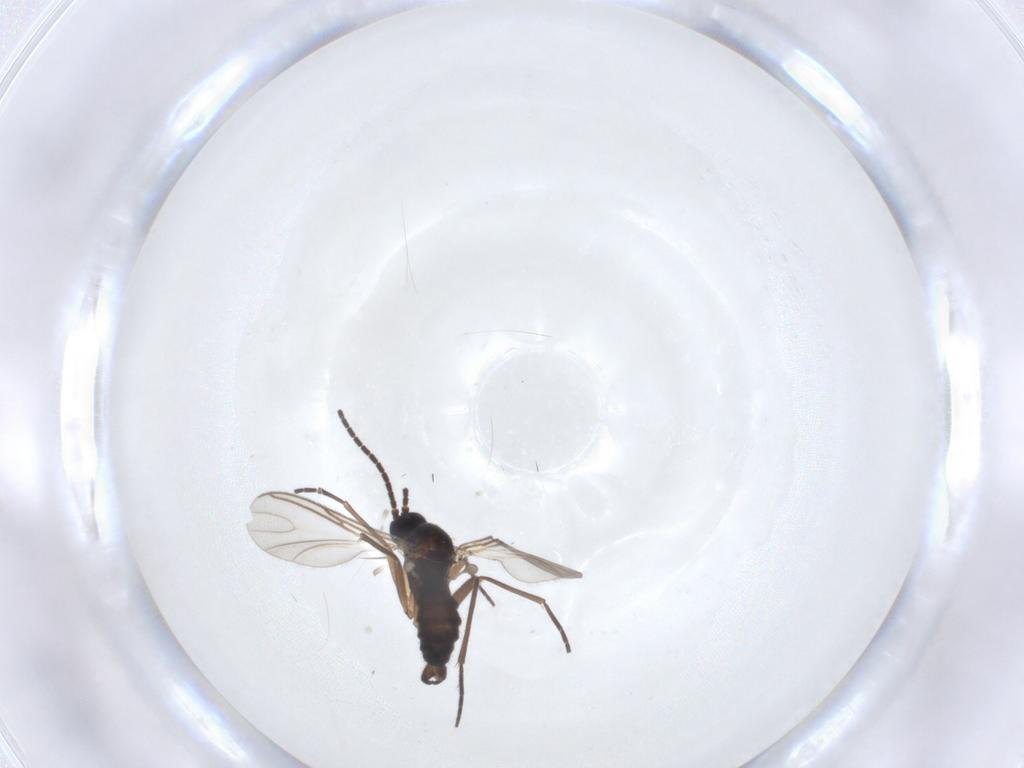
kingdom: Animalia
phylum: Arthropoda
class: Insecta
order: Diptera
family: Sciaridae
